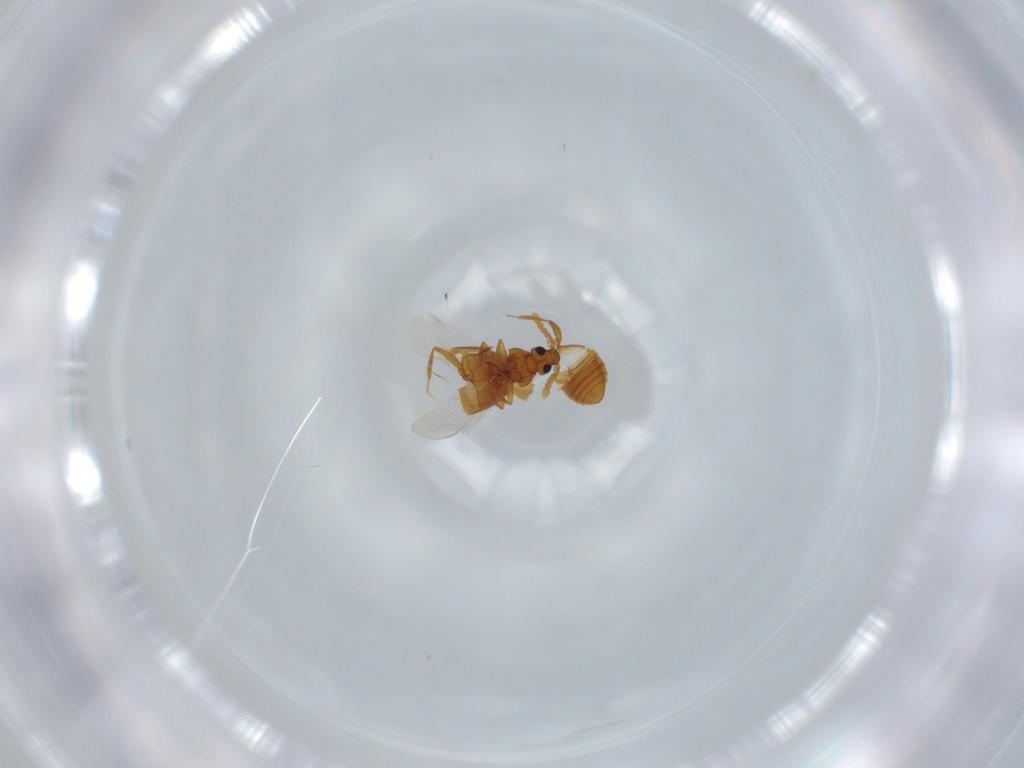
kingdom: Animalia
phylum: Arthropoda
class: Insecta
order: Coleoptera
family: Staphylinidae
